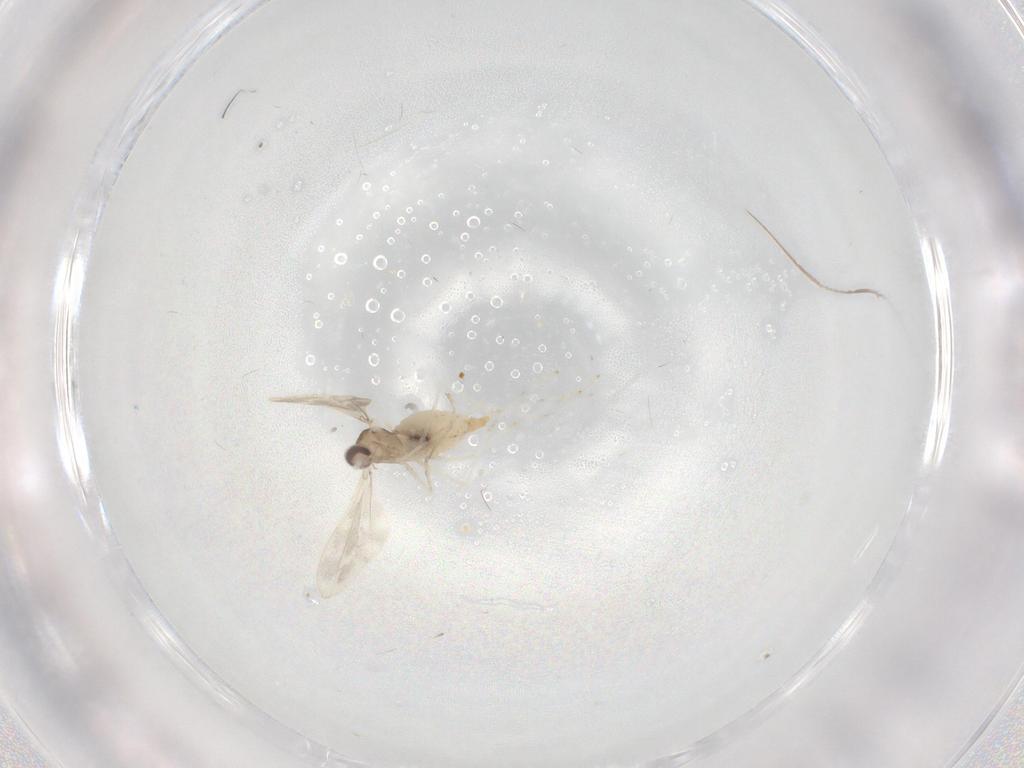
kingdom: Animalia
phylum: Arthropoda
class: Insecta
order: Diptera
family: Cecidomyiidae
